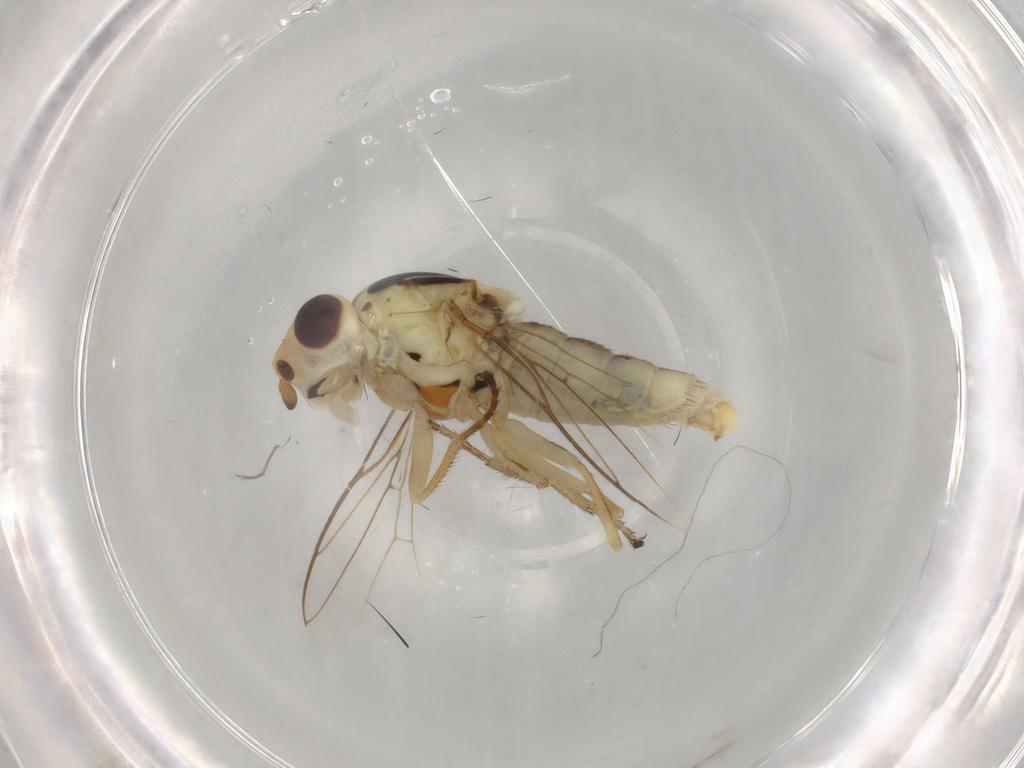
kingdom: Animalia
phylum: Arthropoda
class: Insecta
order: Diptera
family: Chloropidae
